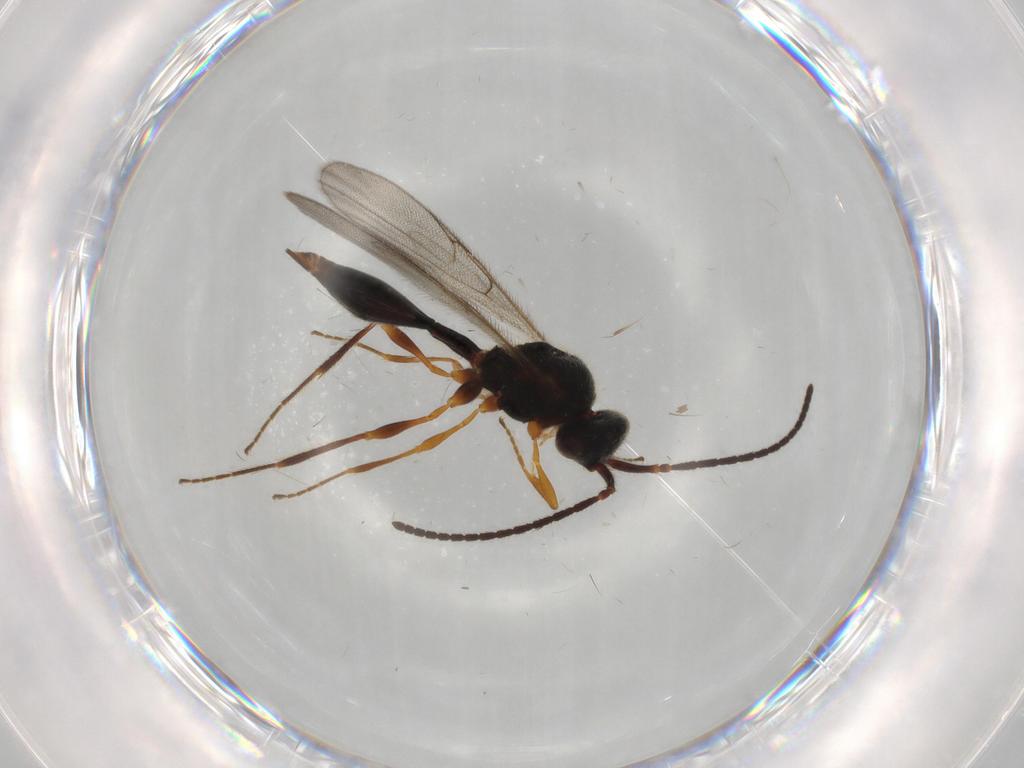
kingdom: Animalia
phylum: Arthropoda
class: Insecta
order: Hymenoptera
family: Diapriidae
